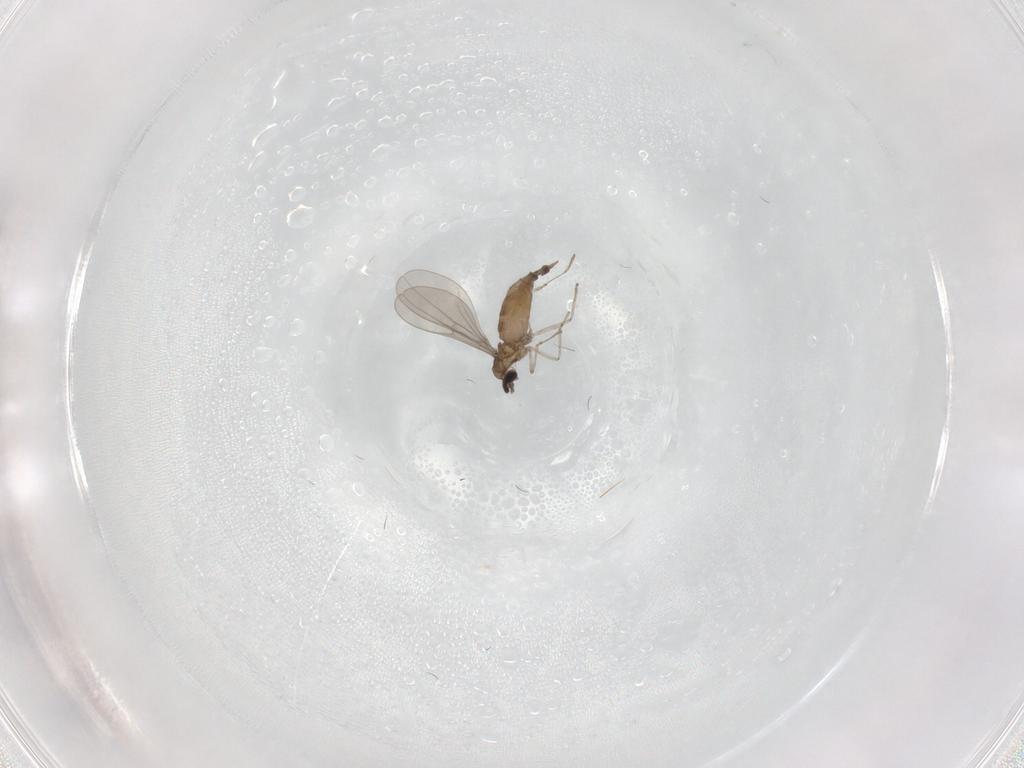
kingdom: Animalia
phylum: Arthropoda
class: Insecta
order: Diptera
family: Cecidomyiidae
